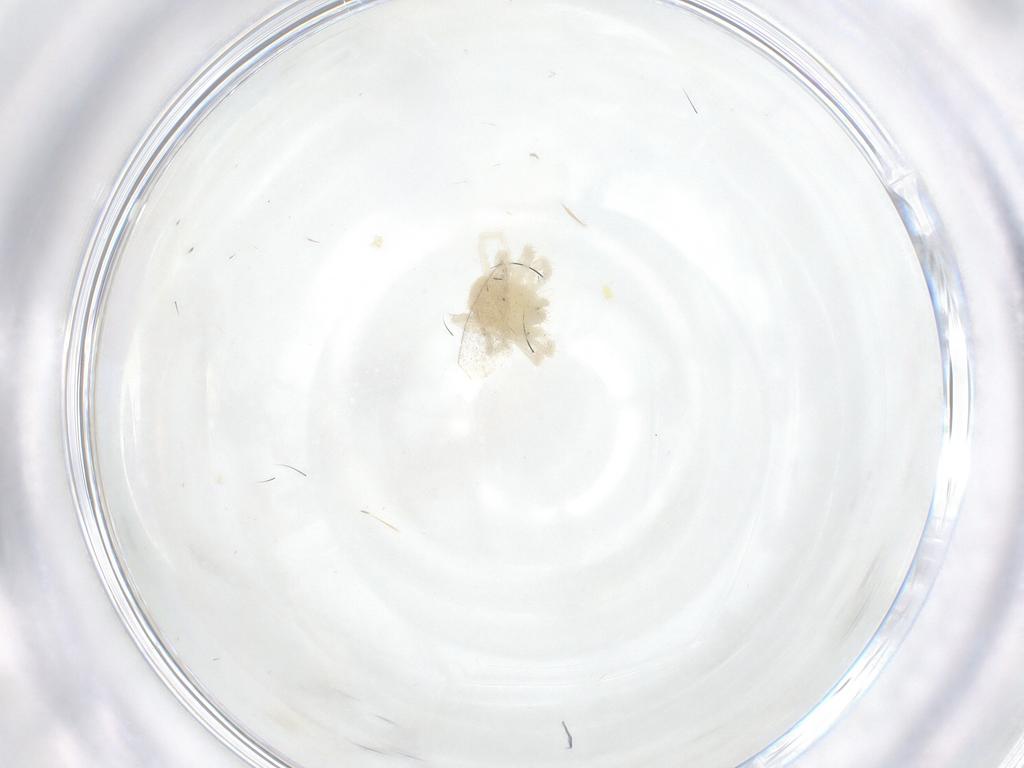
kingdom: Animalia
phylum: Arthropoda
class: Arachnida
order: Trombidiformes
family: Anystidae
